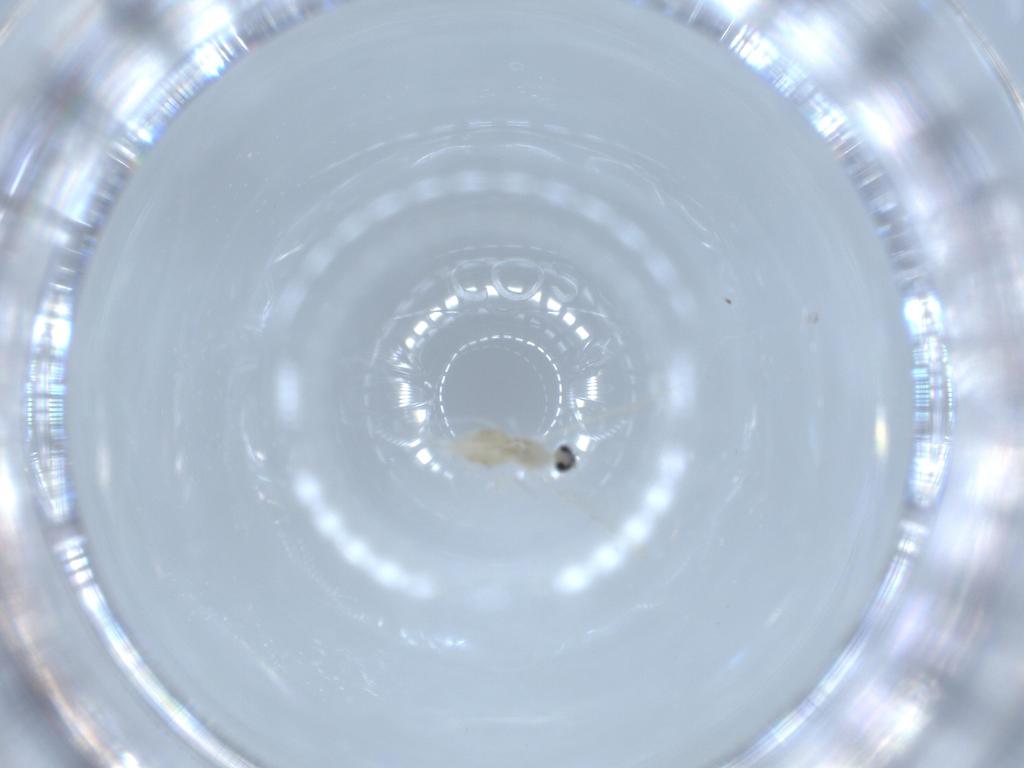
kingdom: Animalia
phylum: Arthropoda
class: Insecta
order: Diptera
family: Cecidomyiidae
